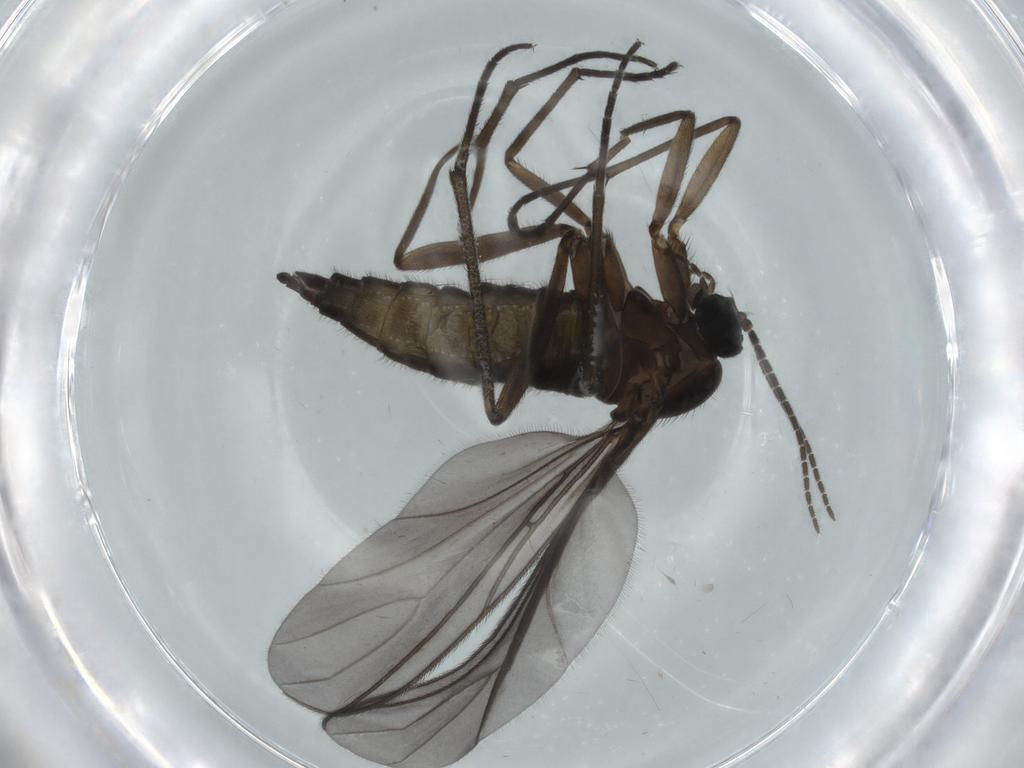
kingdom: Animalia
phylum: Arthropoda
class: Insecta
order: Diptera
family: Sciaridae
